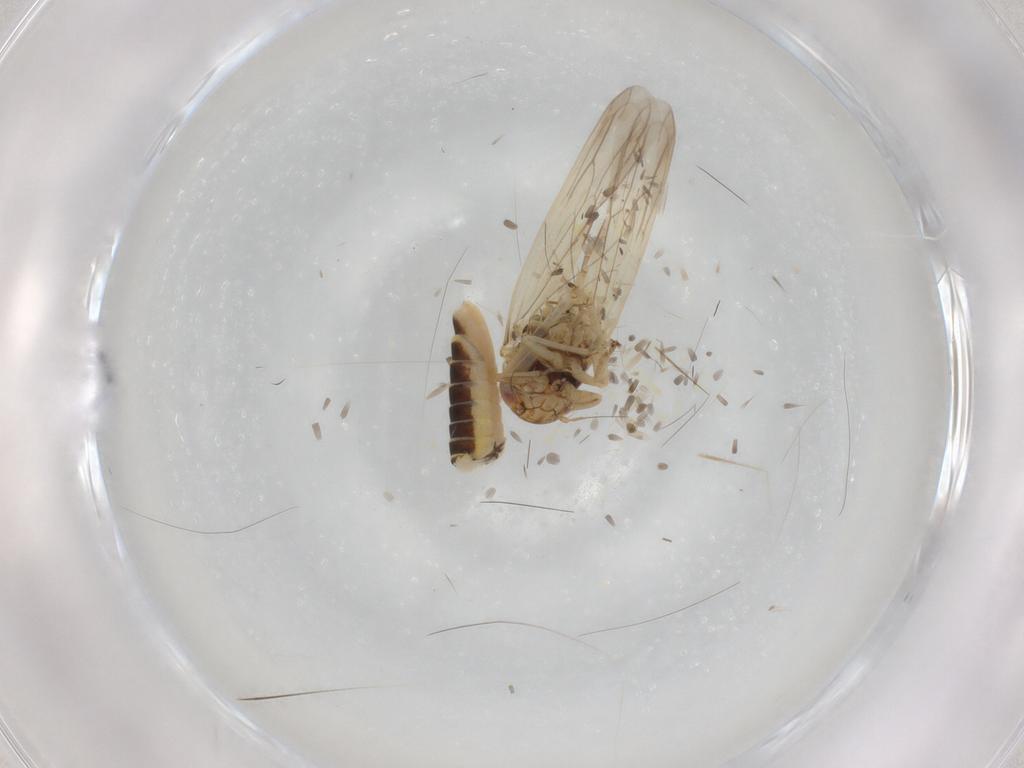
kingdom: Animalia
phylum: Arthropoda
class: Insecta
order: Hemiptera
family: Cicadellidae
